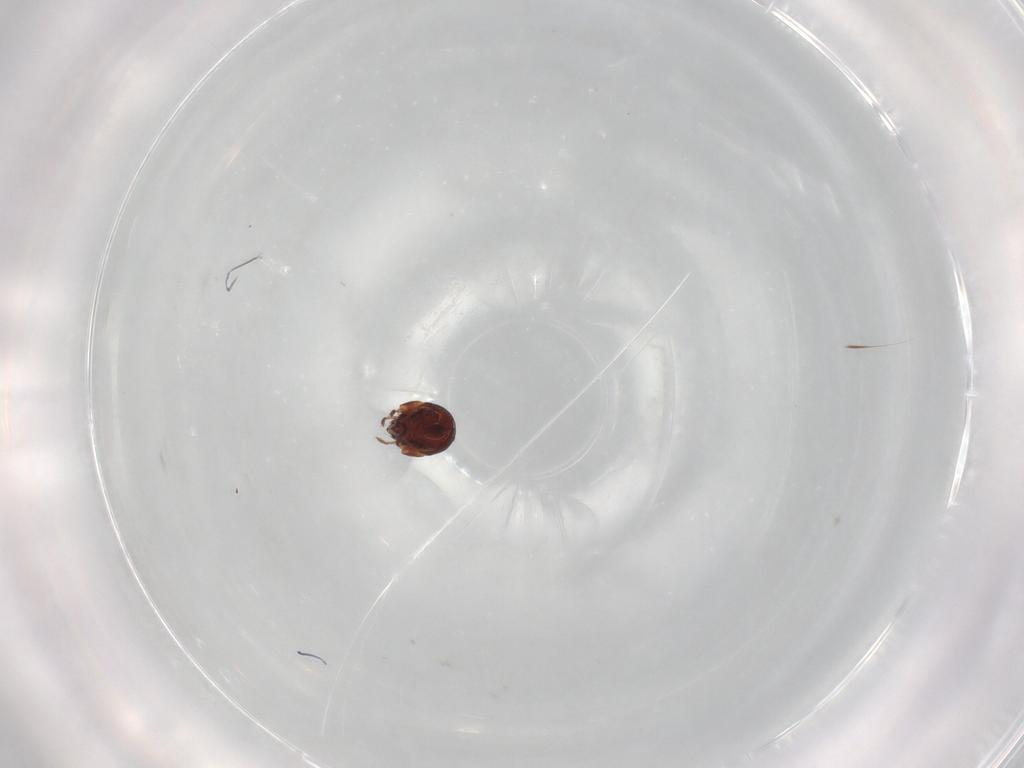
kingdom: Animalia
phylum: Arthropoda
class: Arachnida
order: Sarcoptiformes
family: Humerobatidae
